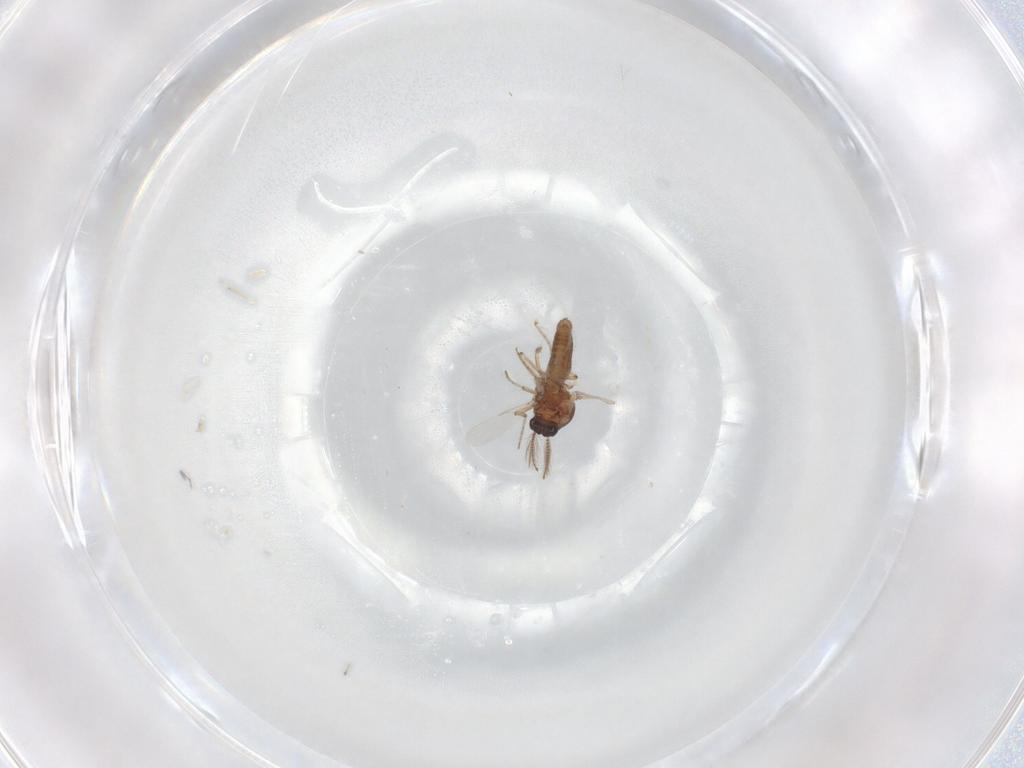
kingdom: Animalia
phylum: Arthropoda
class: Insecta
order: Diptera
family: Ceratopogonidae
